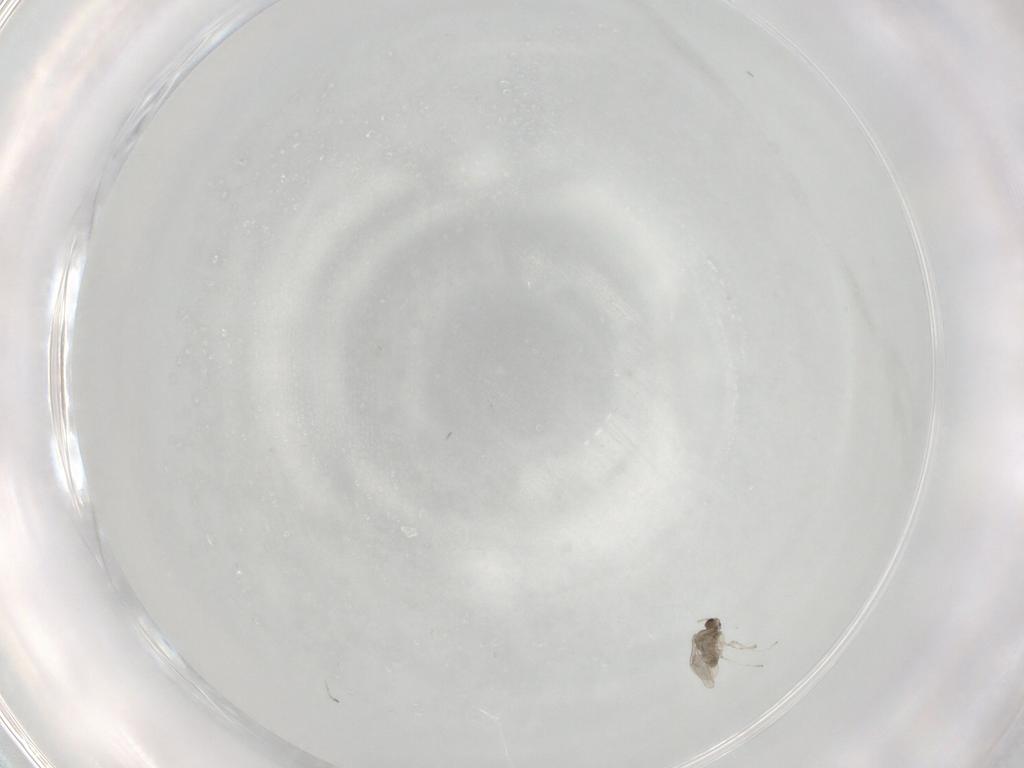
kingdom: Animalia
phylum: Arthropoda
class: Insecta
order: Diptera
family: Cecidomyiidae
